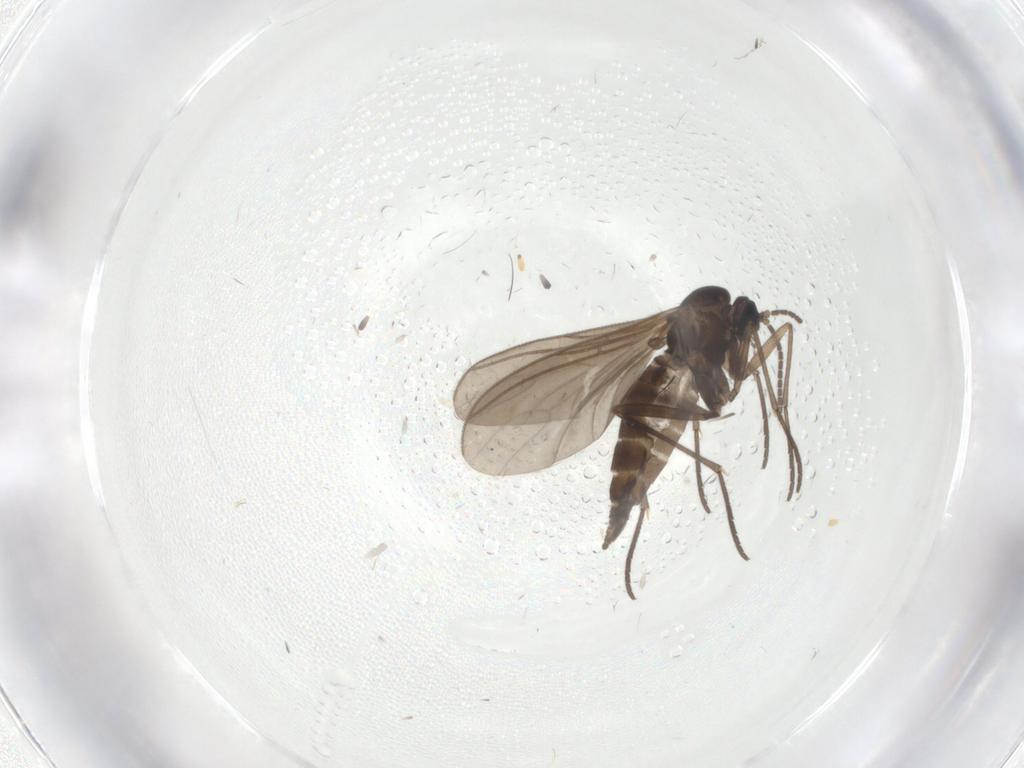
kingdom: Animalia
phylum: Arthropoda
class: Insecta
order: Diptera
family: Sciaridae
